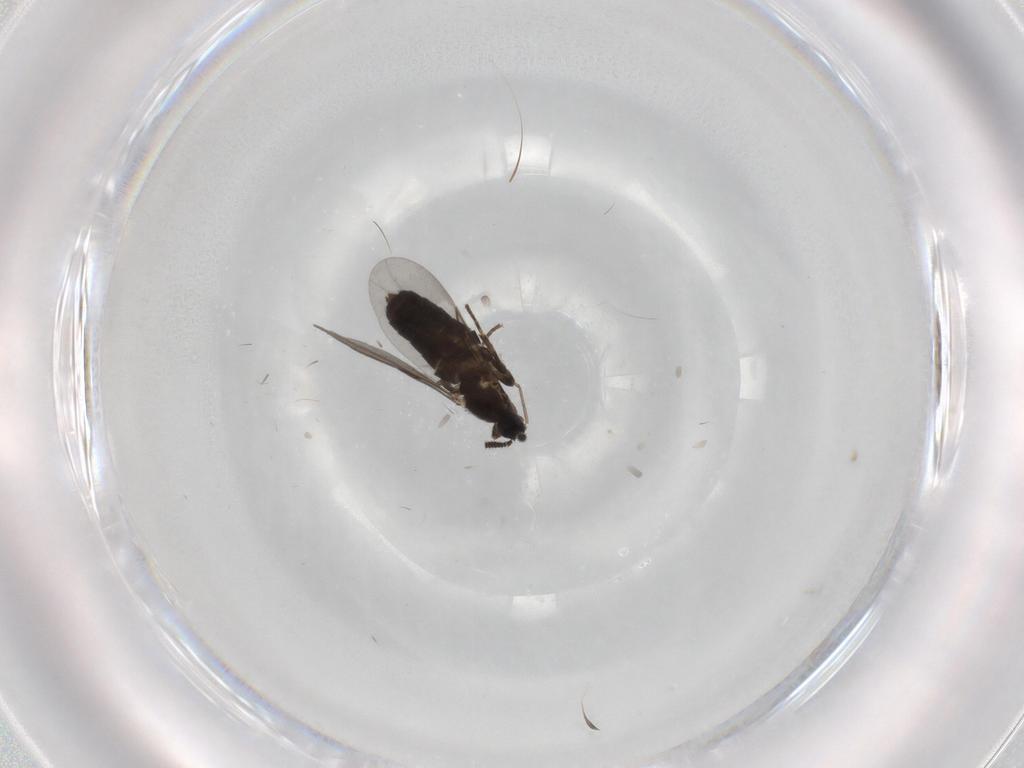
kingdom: Animalia
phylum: Arthropoda
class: Insecta
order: Diptera
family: Scatopsidae
